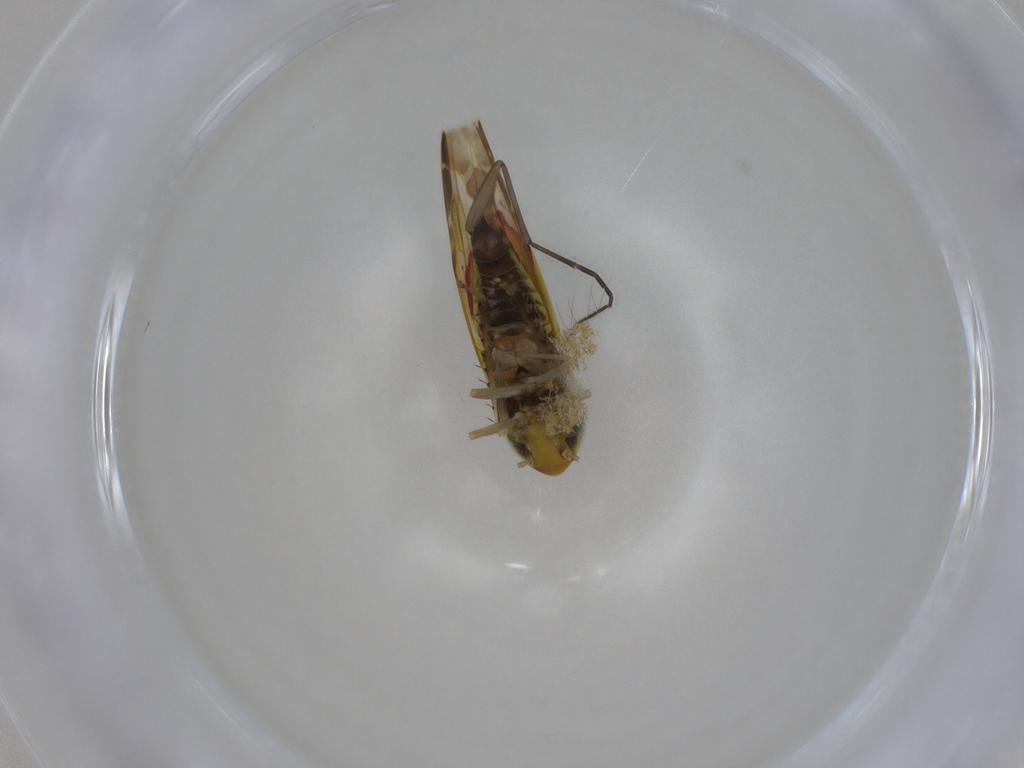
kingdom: Animalia
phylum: Arthropoda
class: Insecta
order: Hemiptera
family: Cicadellidae
